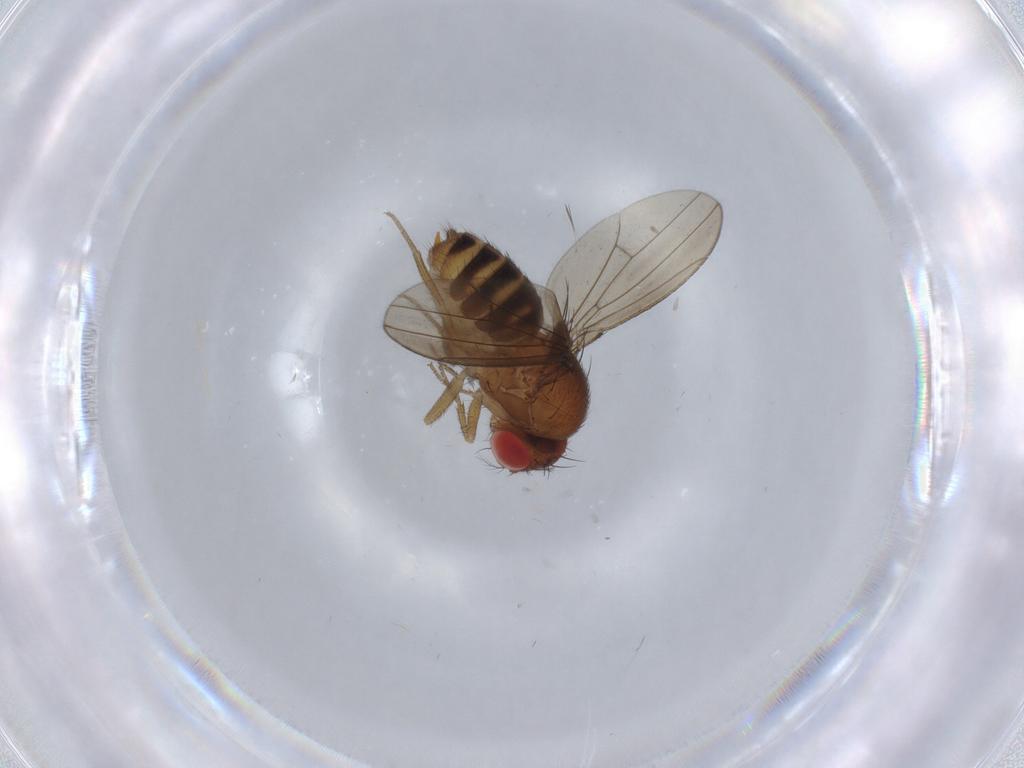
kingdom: Animalia
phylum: Arthropoda
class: Insecta
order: Diptera
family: Drosophilidae
